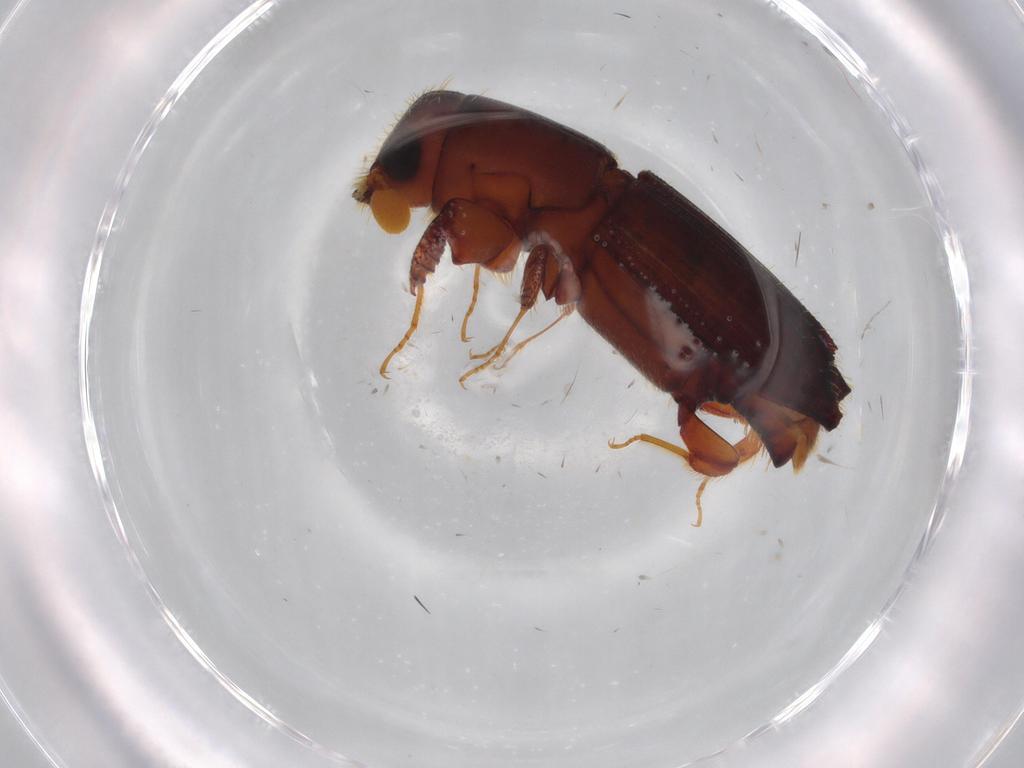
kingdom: Animalia
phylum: Arthropoda
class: Insecta
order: Coleoptera
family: Curculionidae
